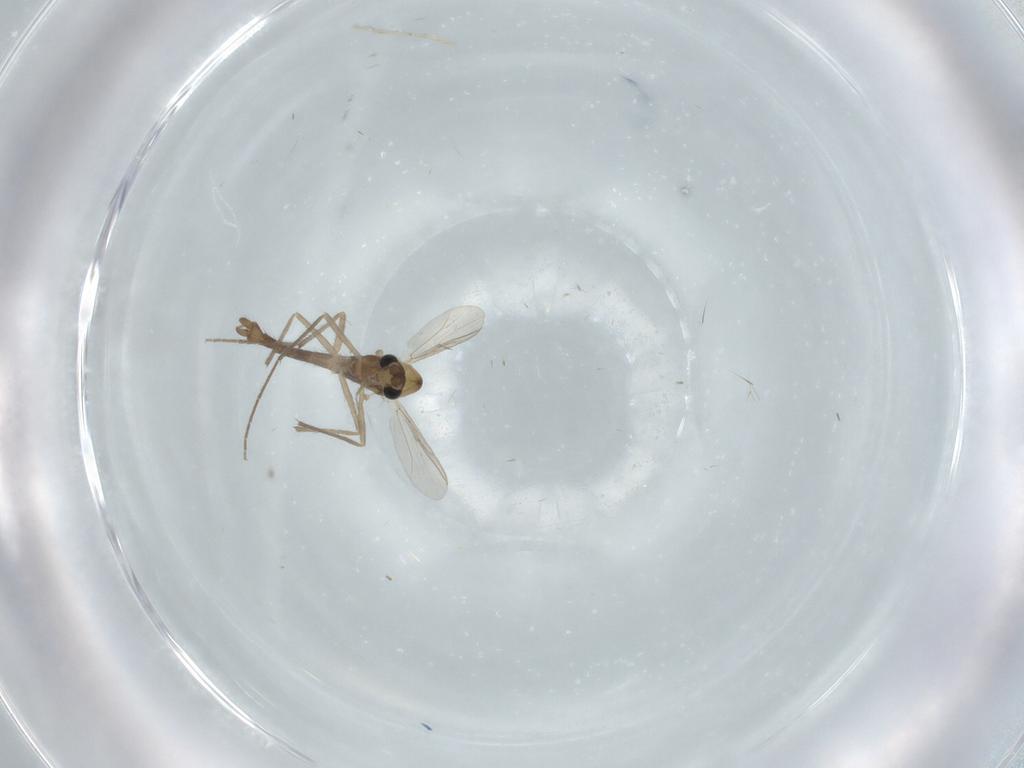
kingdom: Animalia
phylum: Arthropoda
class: Insecta
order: Diptera
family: Chironomidae
